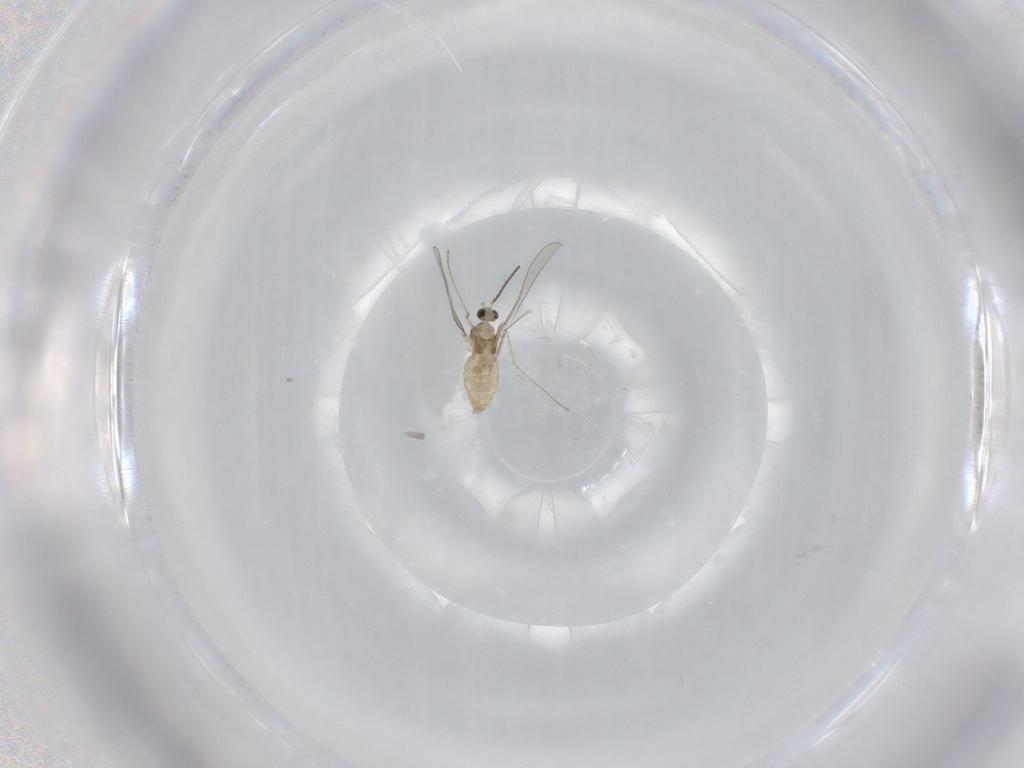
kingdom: Animalia
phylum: Arthropoda
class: Insecta
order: Diptera
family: Cecidomyiidae
